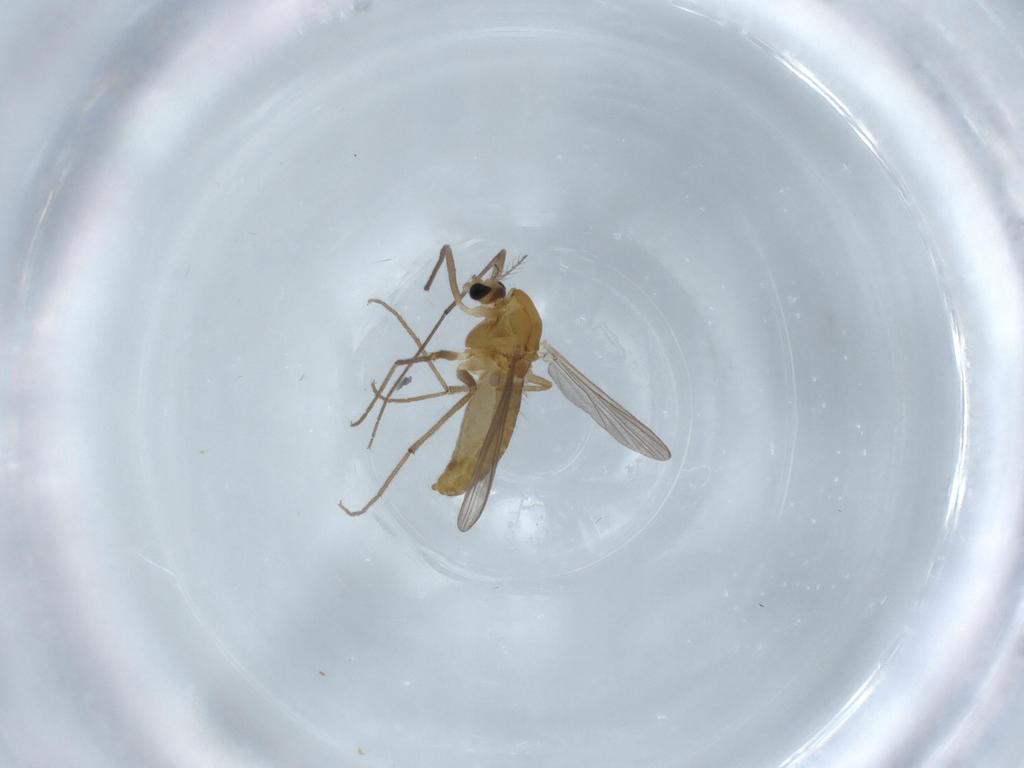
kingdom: Animalia
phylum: Arthropoda
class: Insecta
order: Diptera
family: Chironomidae
